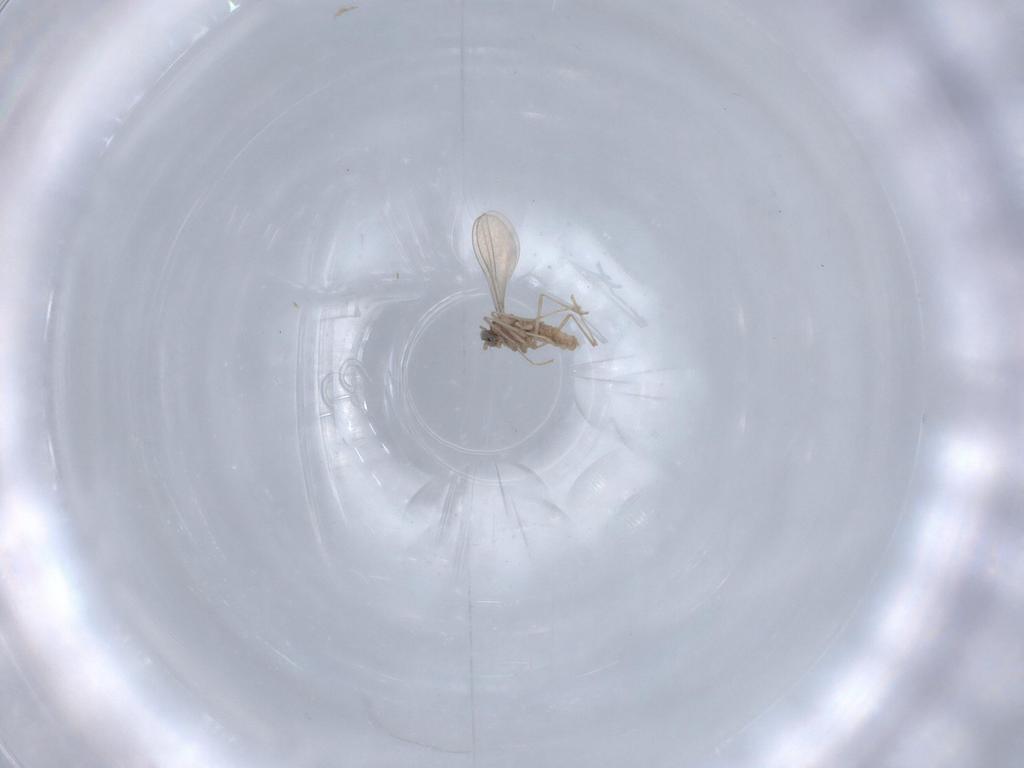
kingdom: Animalia
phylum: Arthropoda
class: Insecta
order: Diptera
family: Cecidomyiidae
